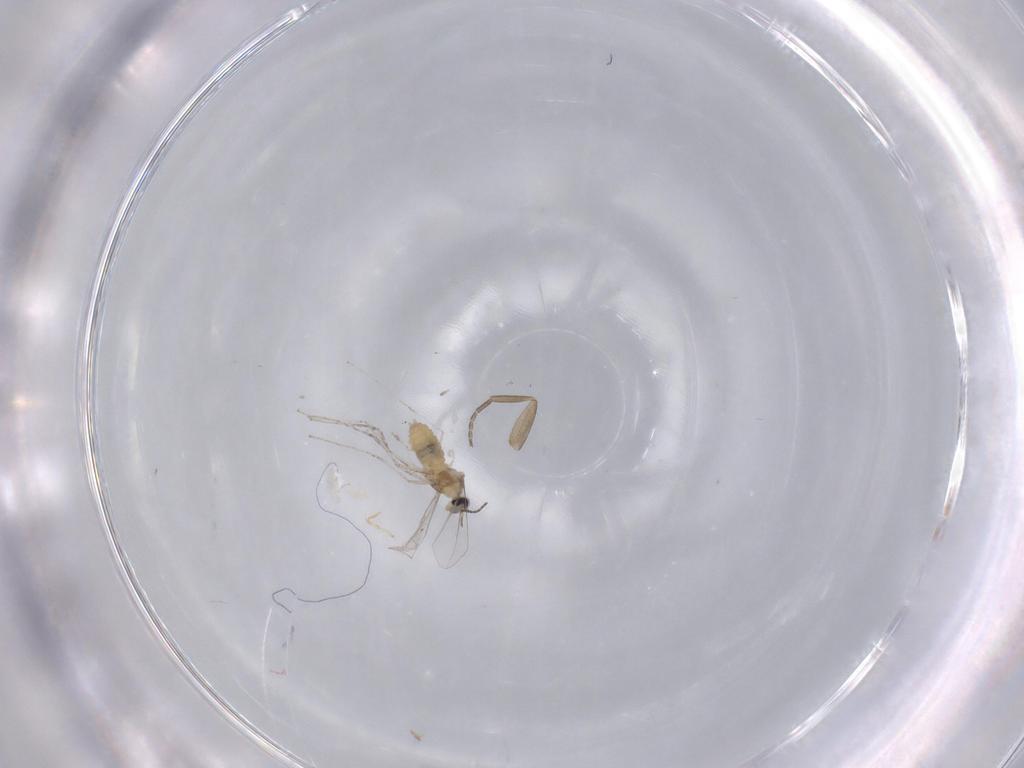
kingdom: Animalia
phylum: Arthropoda
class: Insecta
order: Diptera
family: Cecidomyiidae
